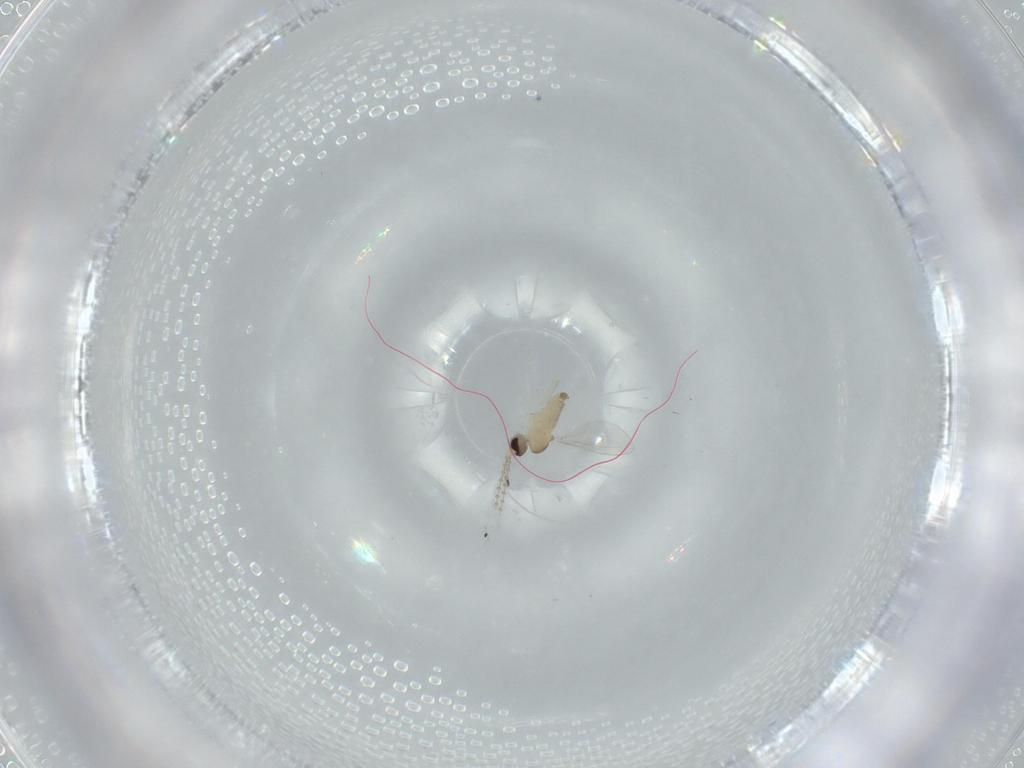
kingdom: Animalia
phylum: Arthropoda
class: Insecta
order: Diptera
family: Cecidomyiidae
